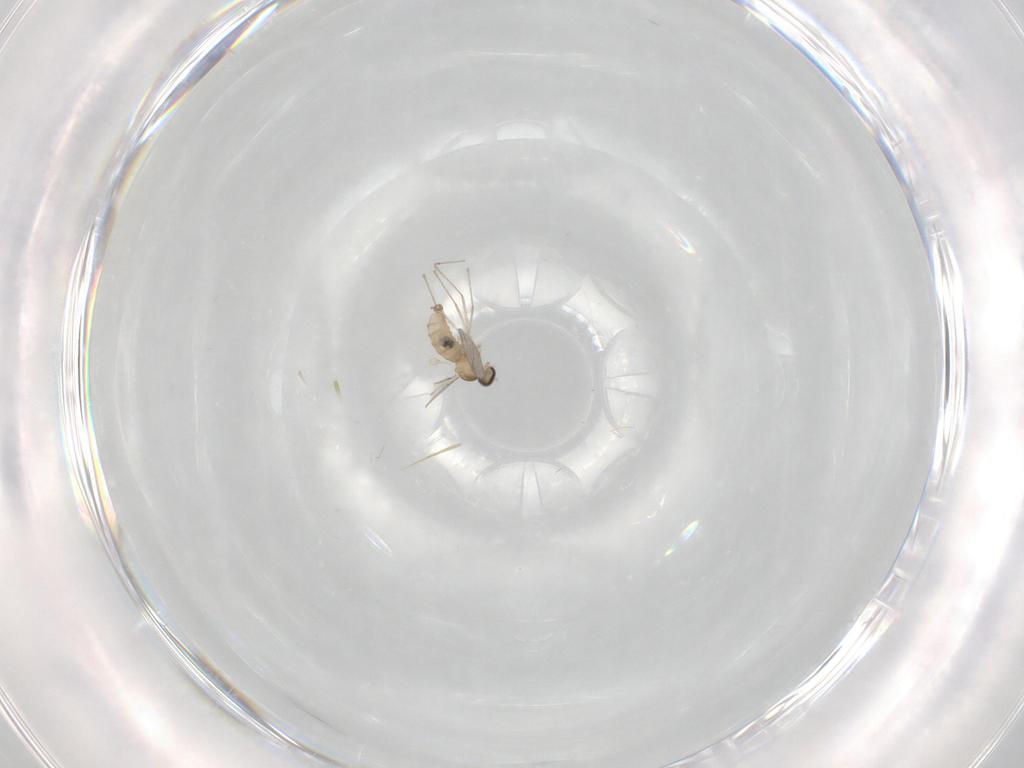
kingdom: Animalia
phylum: Arthropoda
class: Insecta
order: Diptera
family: Cecidomyiidae
